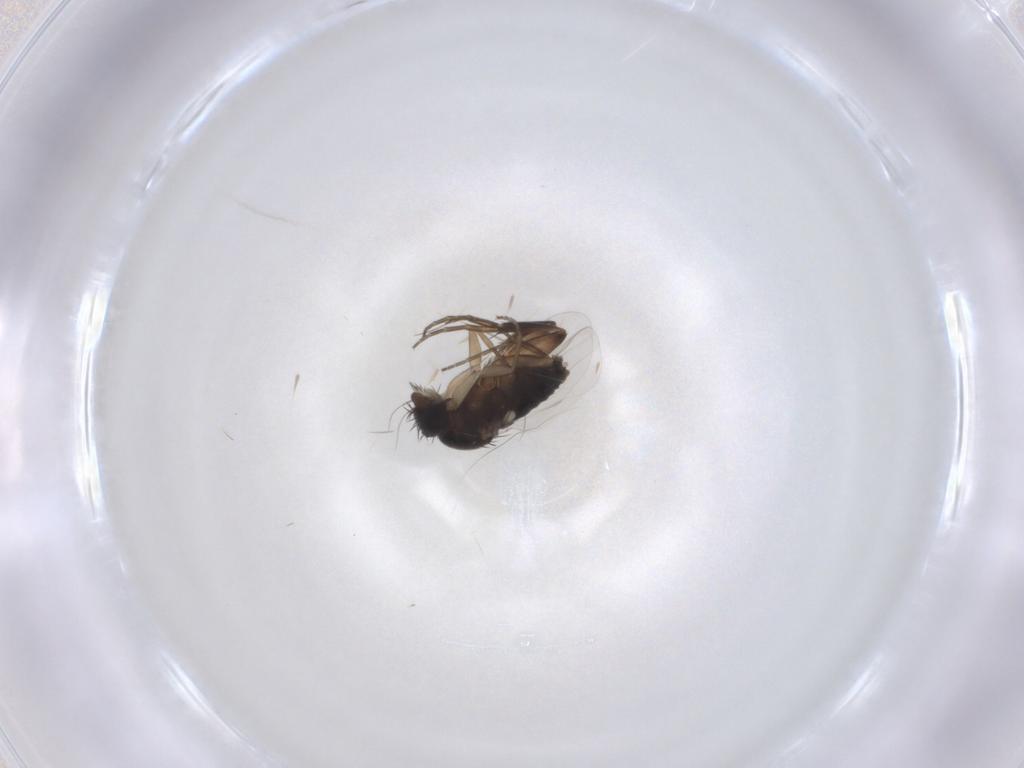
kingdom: Animalia
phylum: Arthropoda
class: Insecta
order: Diptera
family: Phoridae
